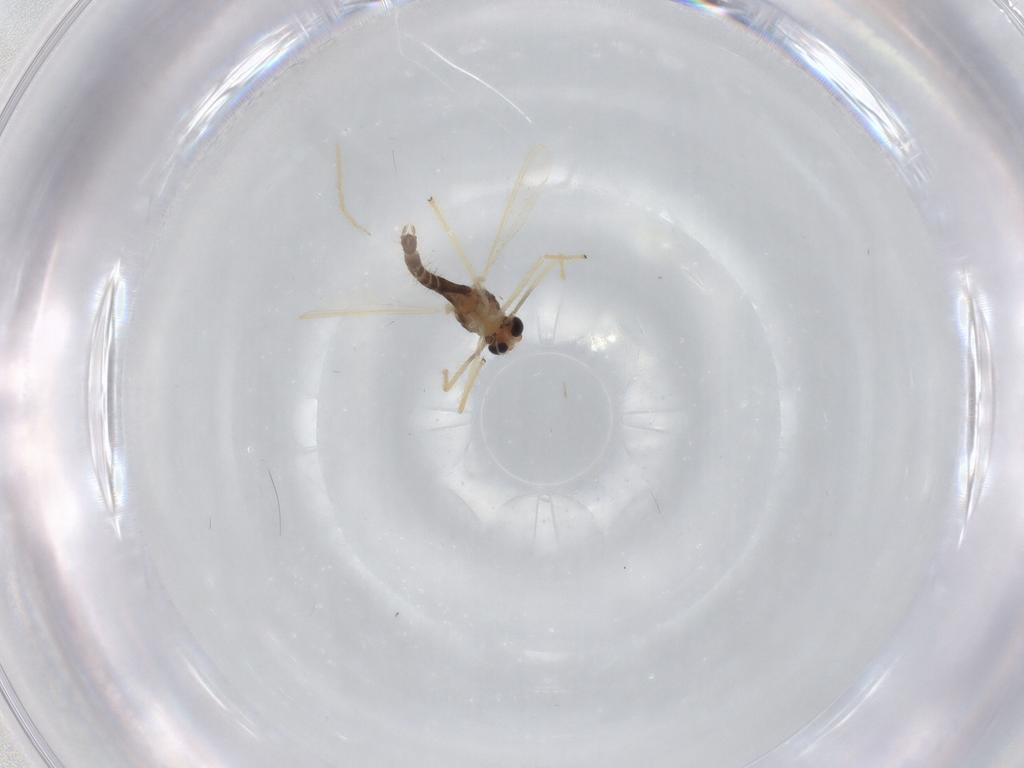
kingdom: Animalia
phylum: Arthropoda
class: Insecta
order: Diptera
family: Chironomidae
